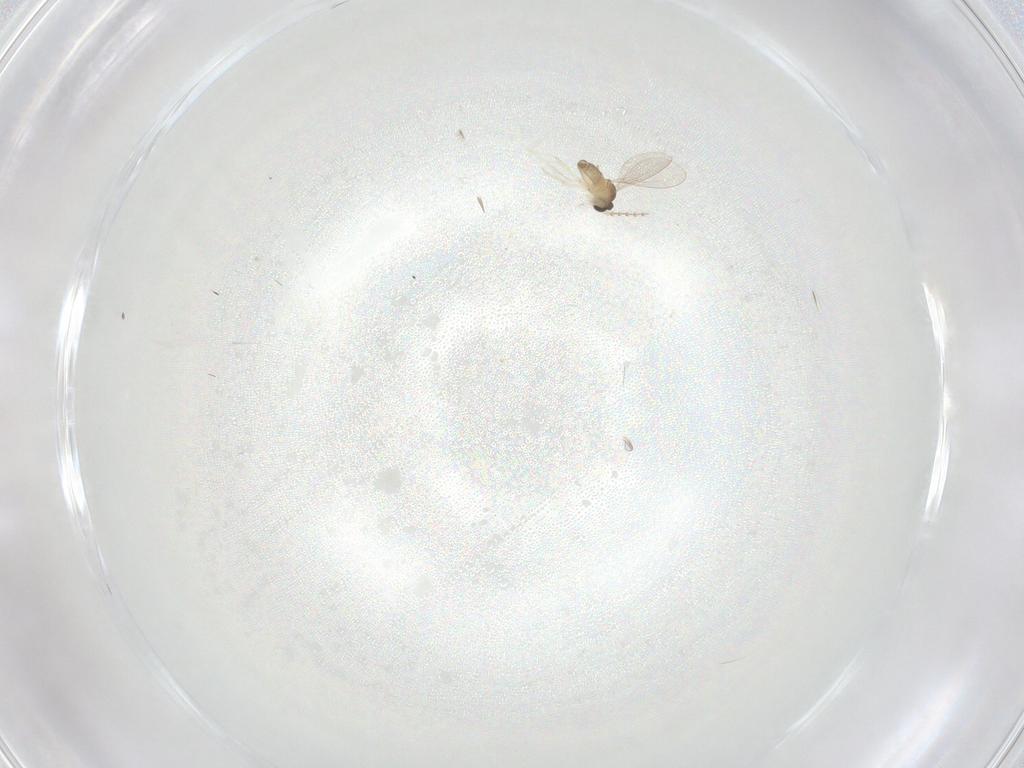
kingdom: Animalia
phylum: Arthropoda
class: Insecta
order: Diptera
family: Cecidomyiidae
